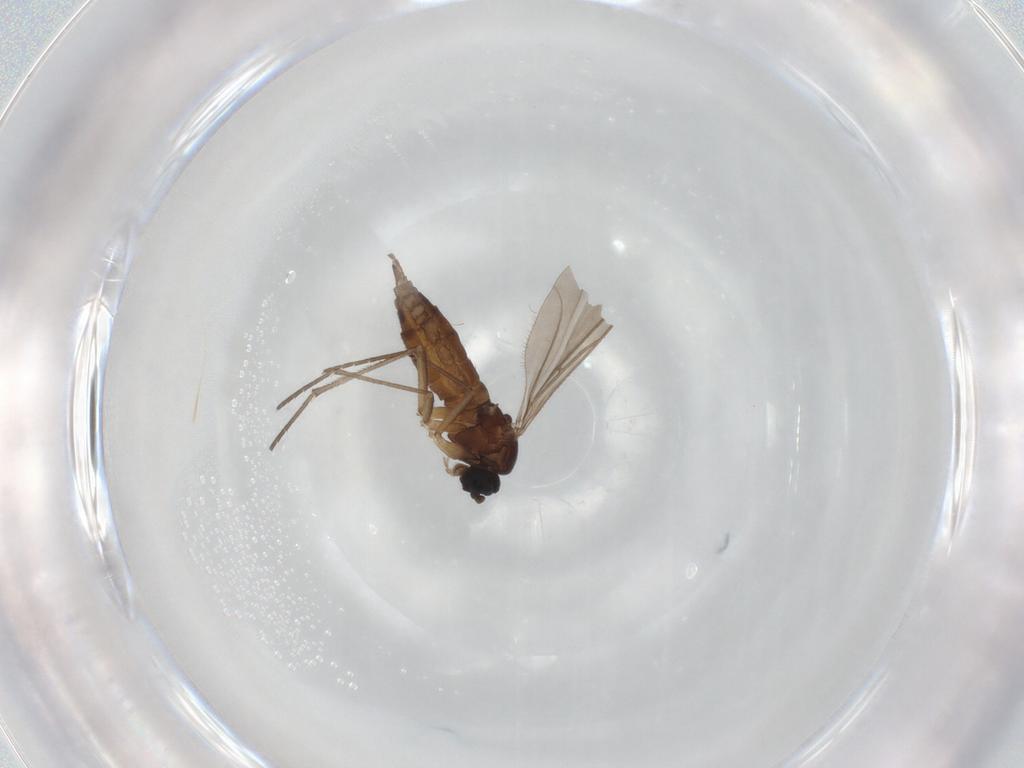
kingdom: Animalia
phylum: Arthropoda
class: Insecta
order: Diptera
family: Sciaridae
